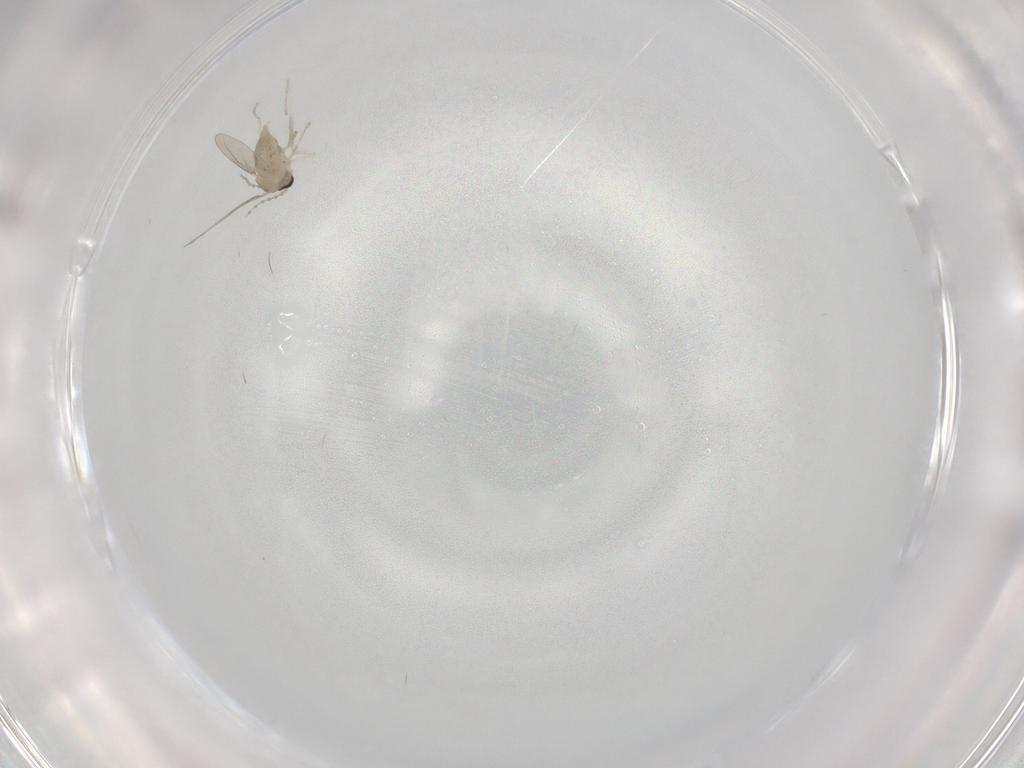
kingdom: Animalia
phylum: Arthropoda
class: Insecta
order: Diptera
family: Cecidomyiidae
